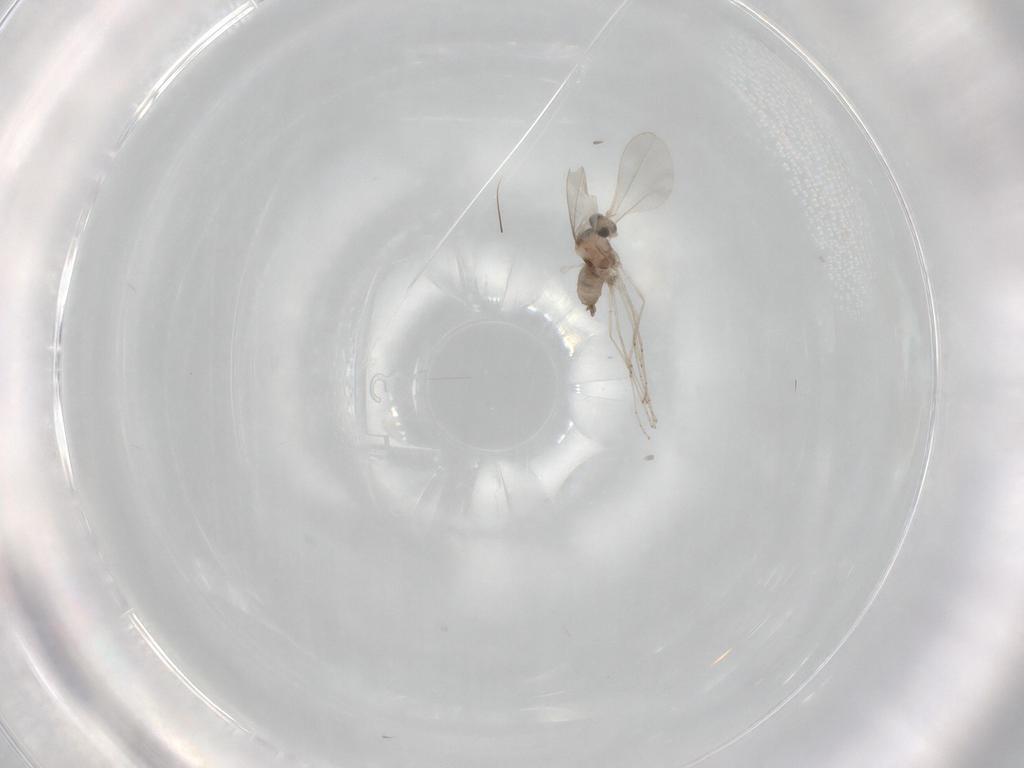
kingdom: Animalia
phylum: Arthropoda
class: Insecta
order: Diptera
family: Cecidomyiidae
